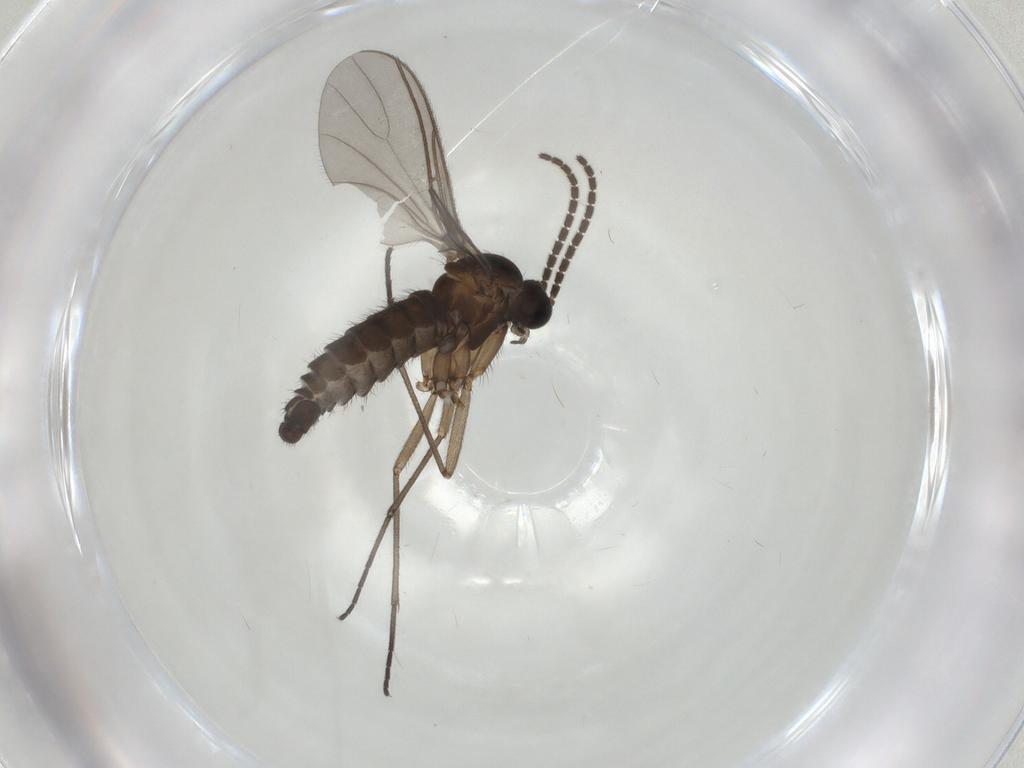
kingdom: Animalia
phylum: Arthropoda
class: Insecta
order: Diptera
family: Sciaridae
